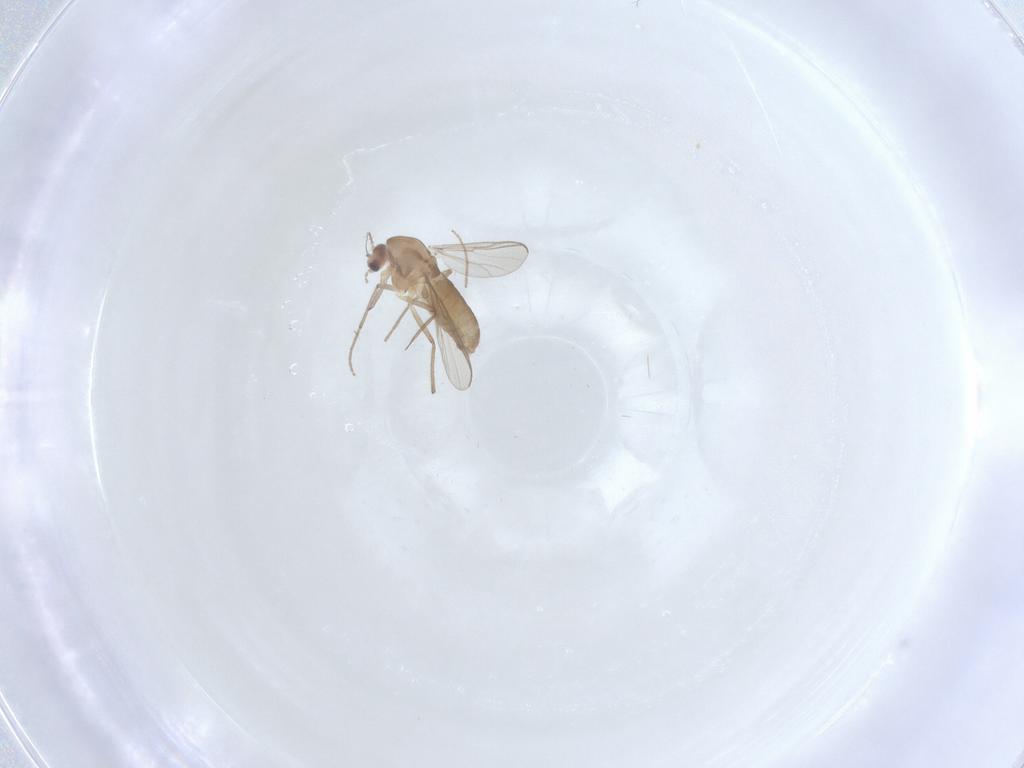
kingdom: Animalia
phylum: Arthropoda
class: Insecta
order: Diptera
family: Chironomidae
